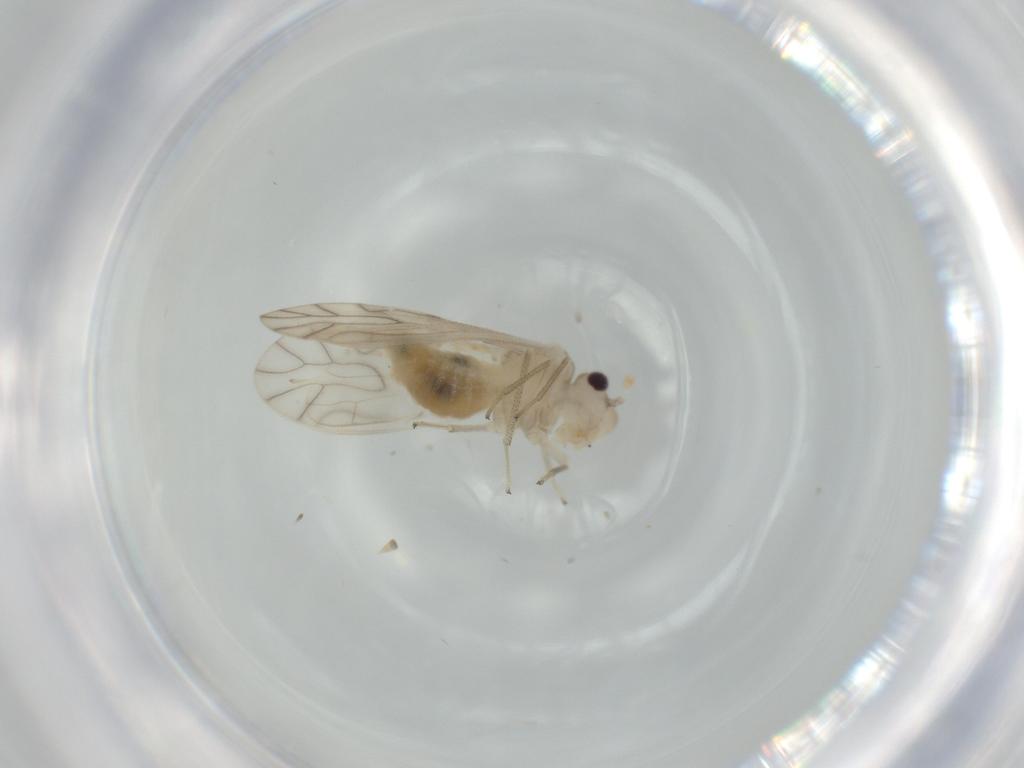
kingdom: Animalia
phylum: Arthropoda
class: Insecta
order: Psocodea
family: Caeciliusidae
